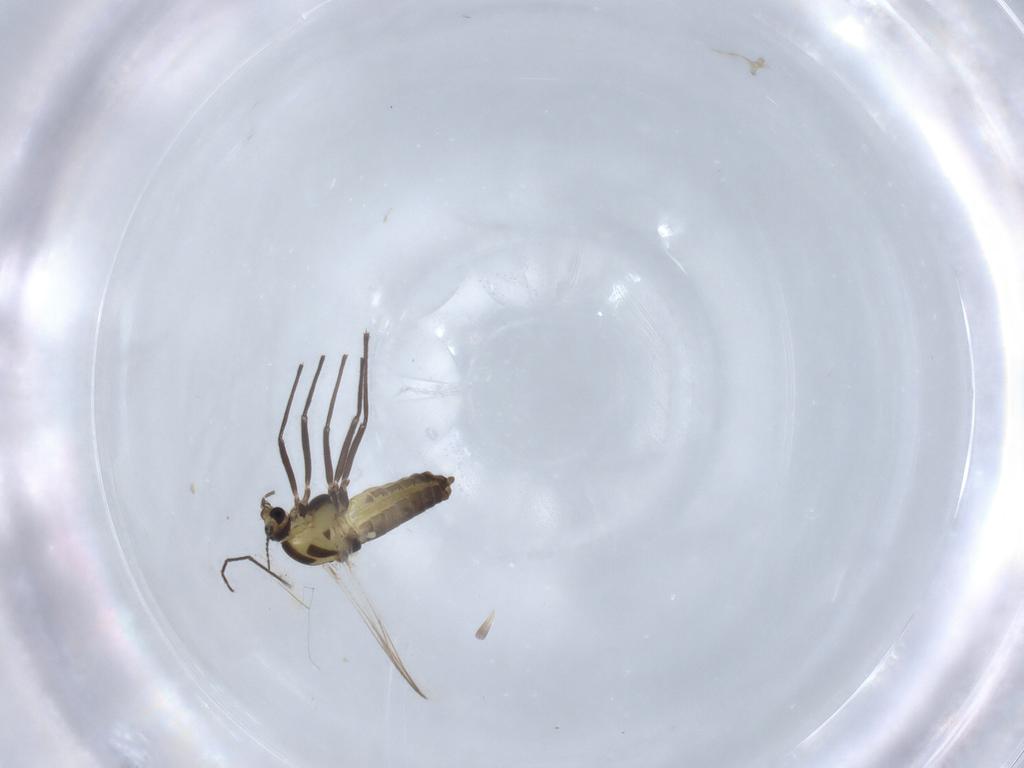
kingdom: Animalia
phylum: Arthropoda
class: Insecta
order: Diptera
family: Chironomidae
